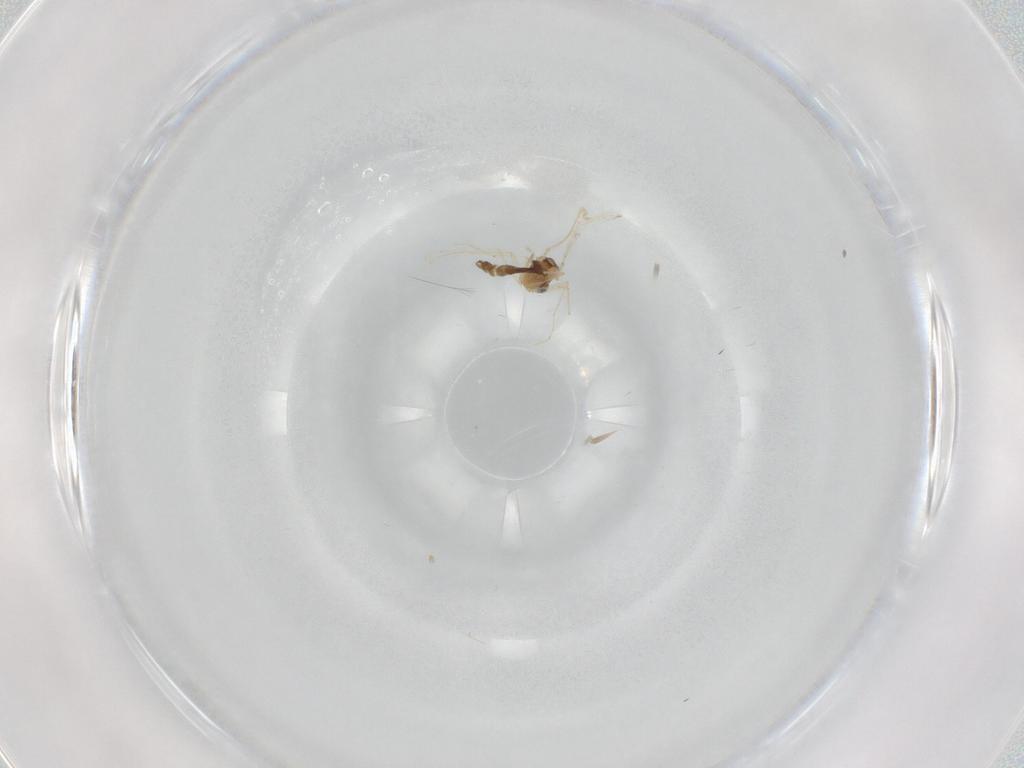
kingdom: Animalia
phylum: Arthropoda
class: Insecta
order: Diptera
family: Chironomidae
